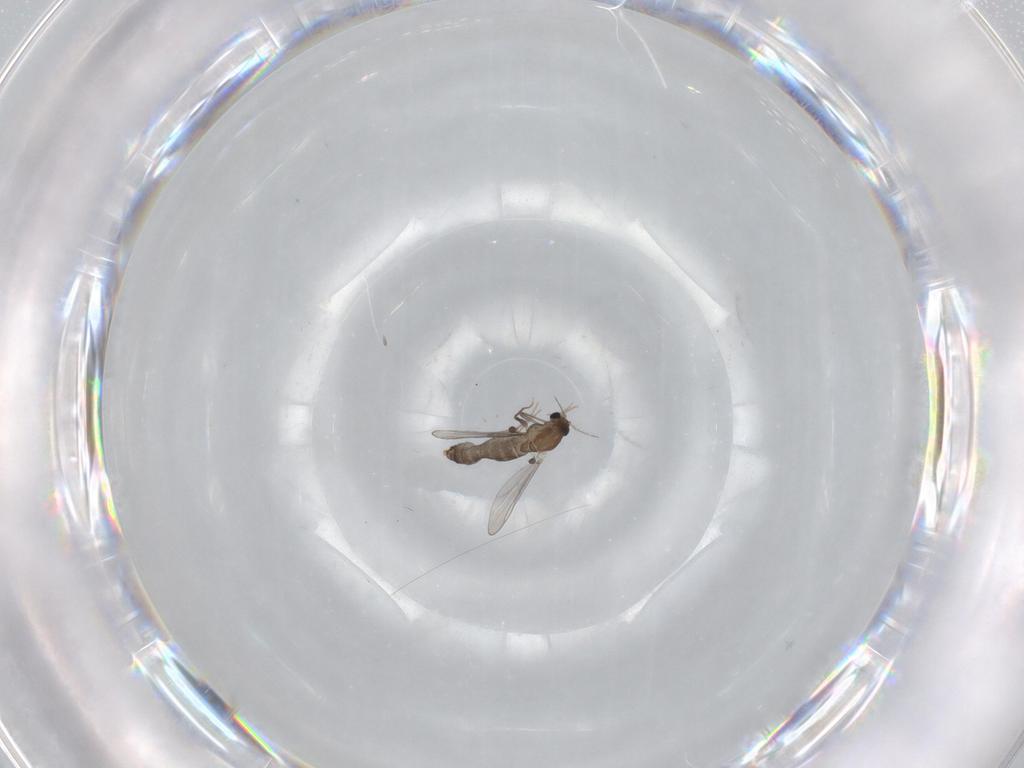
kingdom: Animalia
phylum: Arthropoda
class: Insecta
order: Diptera
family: Chironomidae
